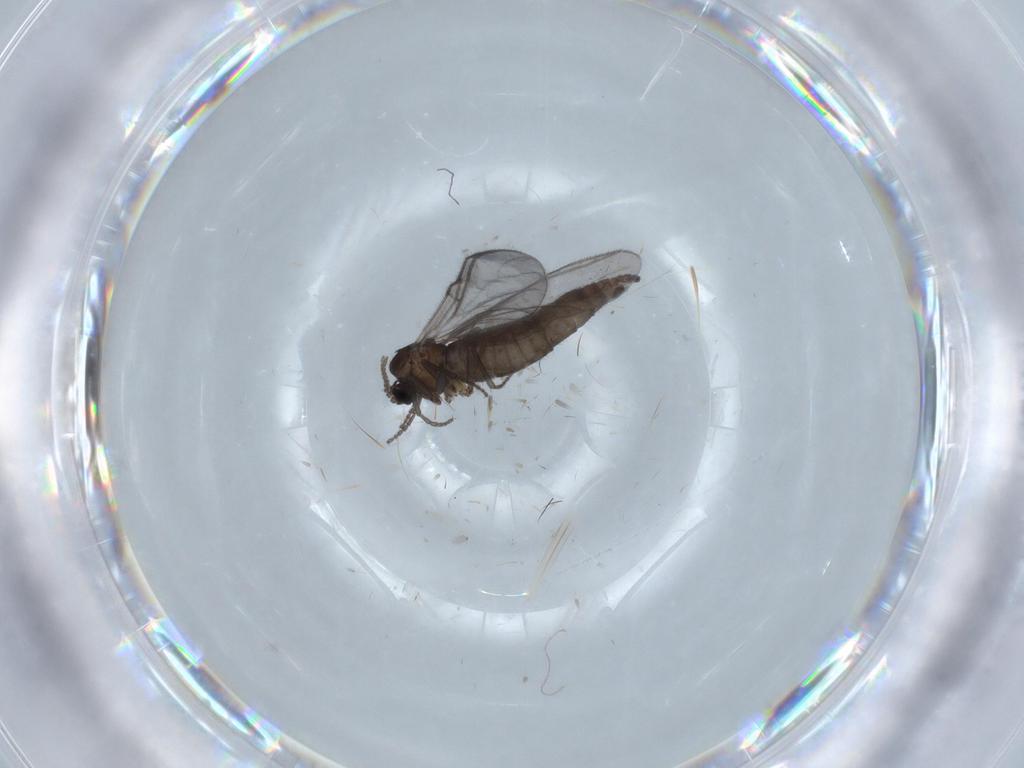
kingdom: Animalia
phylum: Arthropoda
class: Insecta
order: Diptera
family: Sciaridae
